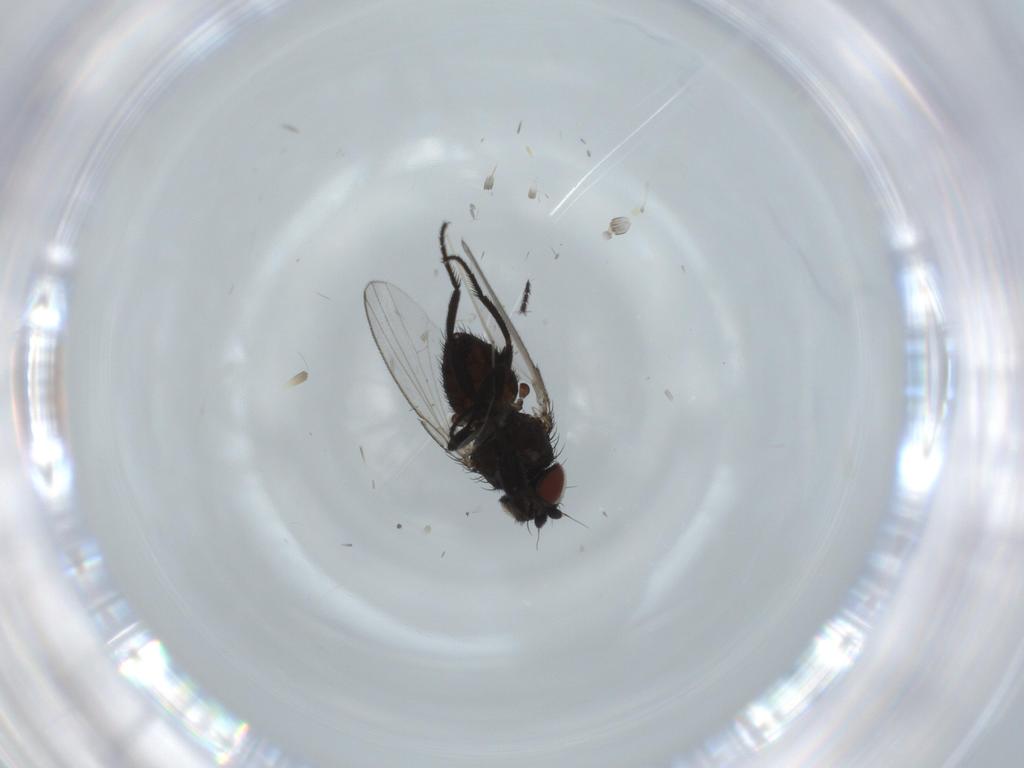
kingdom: Animalia
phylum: Arthropoda
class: Insecta
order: Diptera
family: Milichiidae
